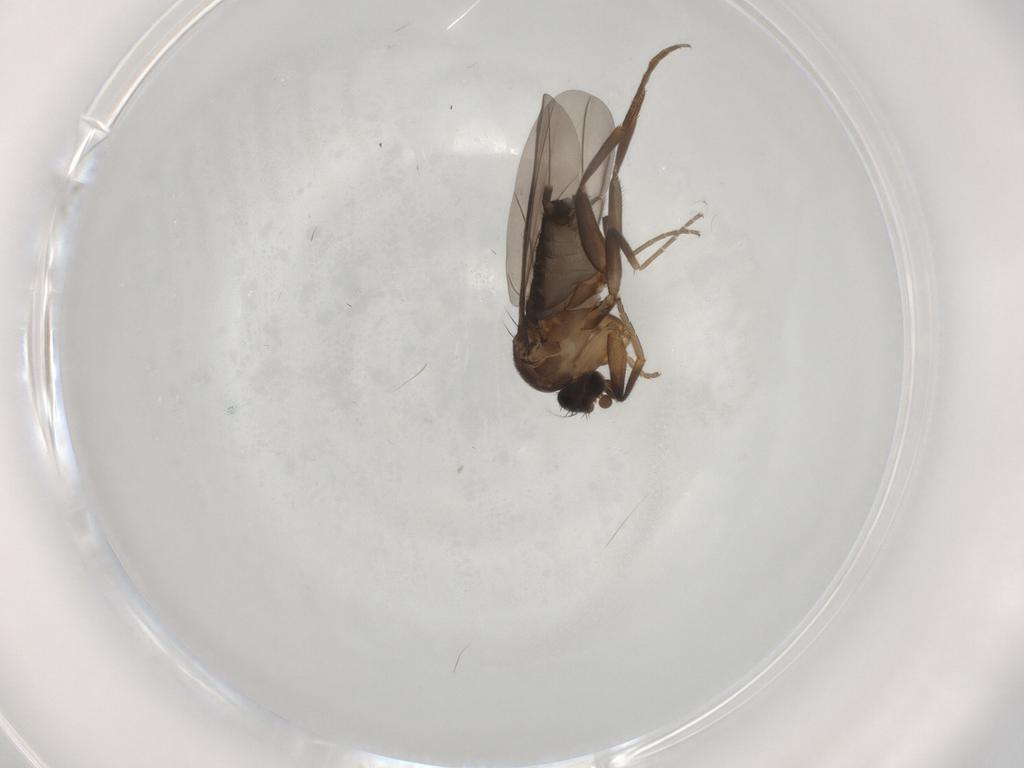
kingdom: Animalia
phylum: Arthropoda
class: Insecta
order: Diptera
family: Phoridae
